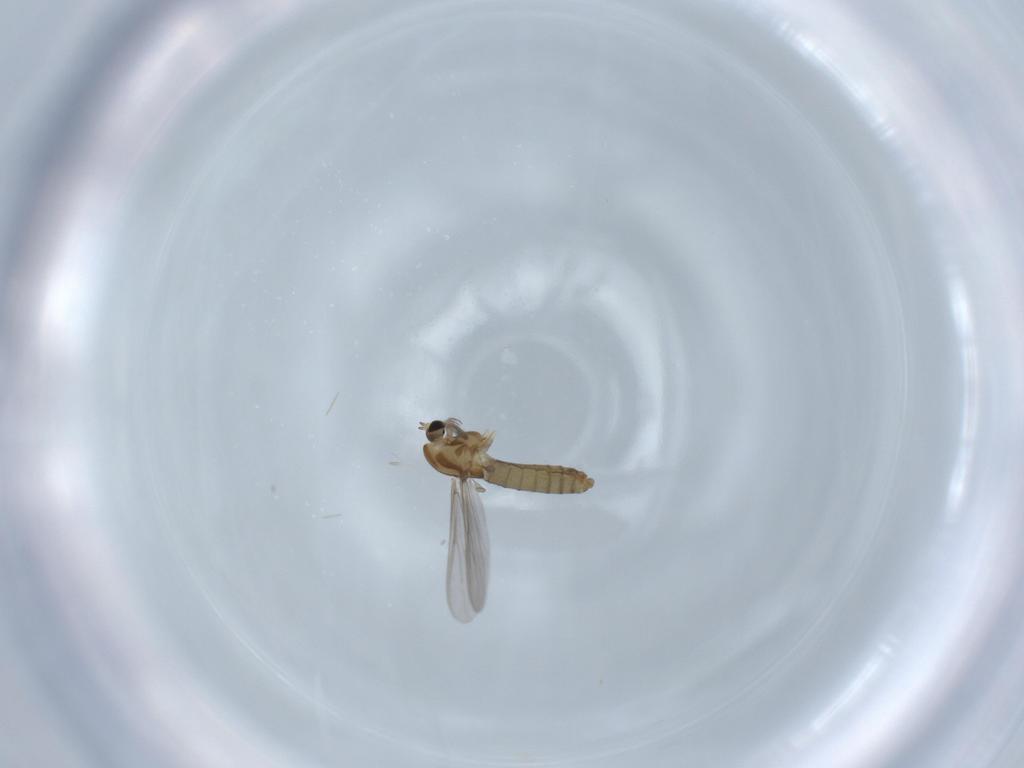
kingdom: Animalia
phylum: Arthropoda
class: Insecta
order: Diptera
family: Chironomidae
